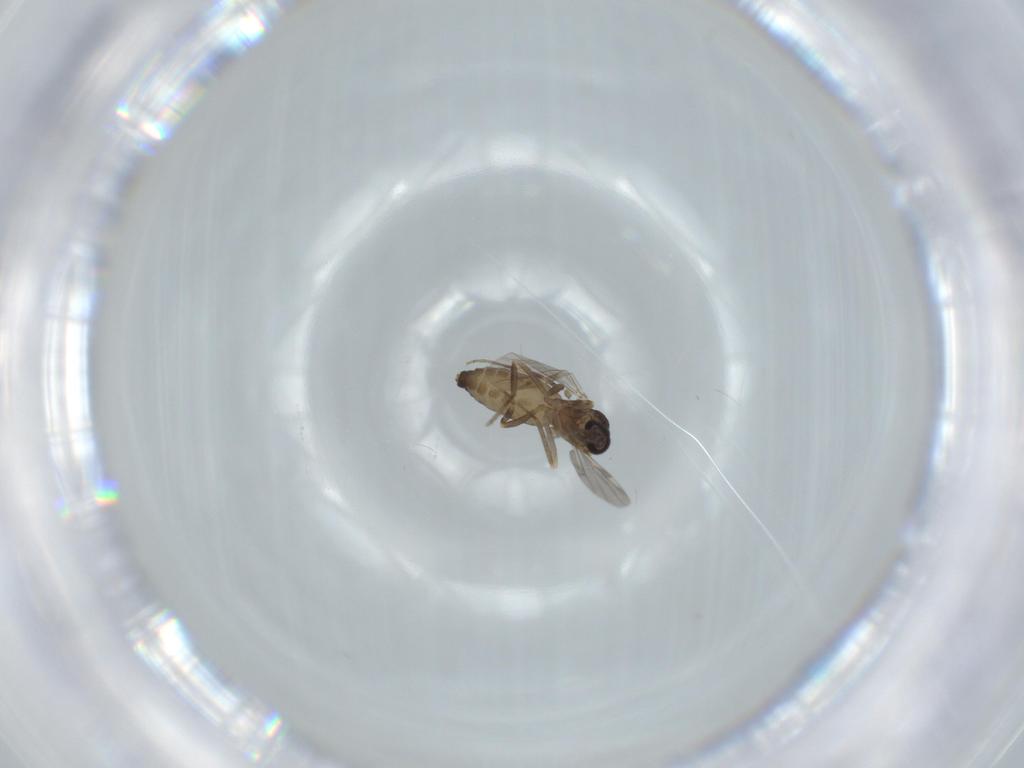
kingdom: Animalia
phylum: Arthropoda
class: Insecta
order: Diptera
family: Ceratopogonidae
